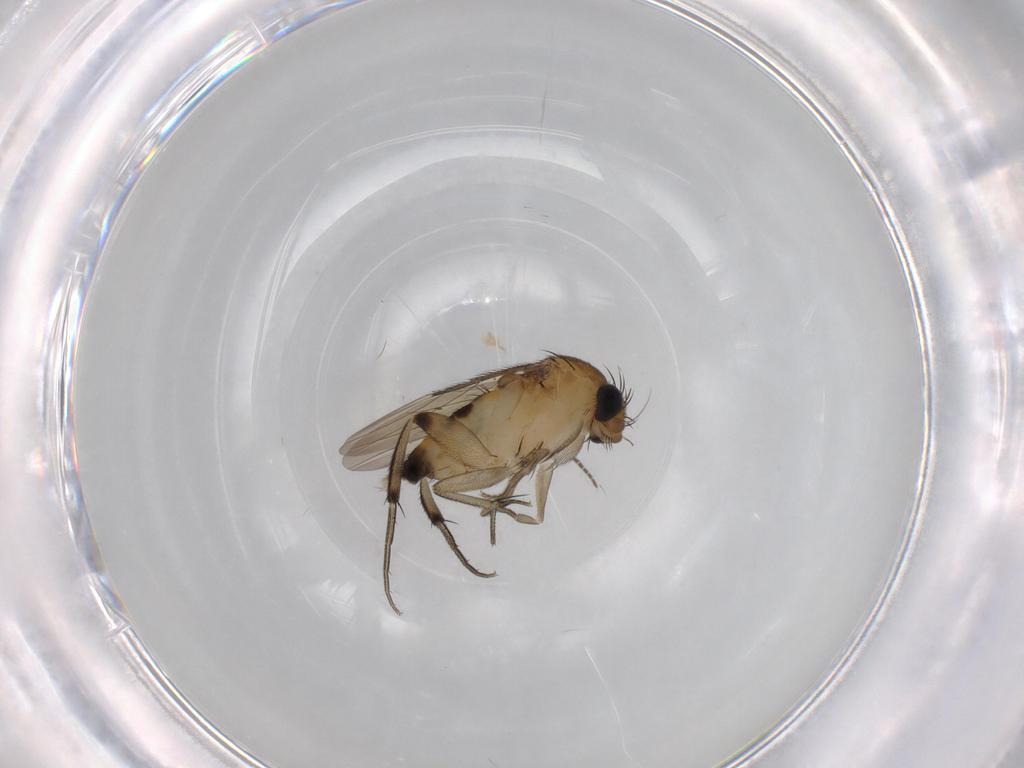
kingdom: Animalia
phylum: Arthropoda
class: Insecta
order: Diptera
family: Phoridae
